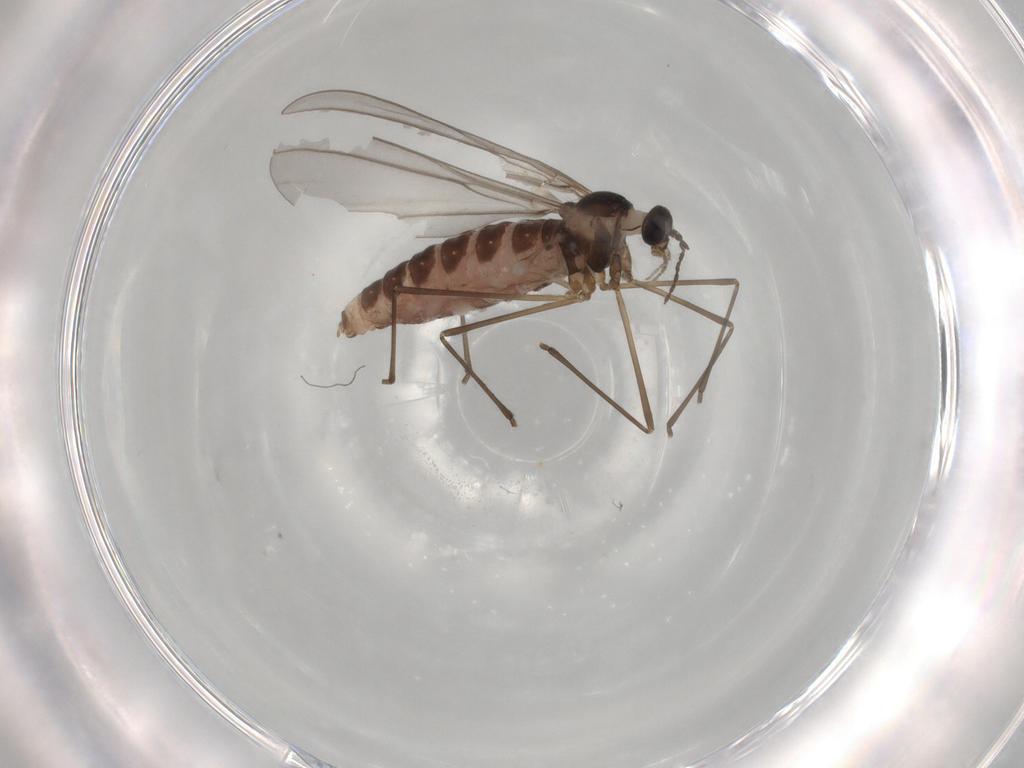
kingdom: Animalia
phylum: Arthropoda
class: Insecta
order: Diptera
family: Cecidomyiidae
